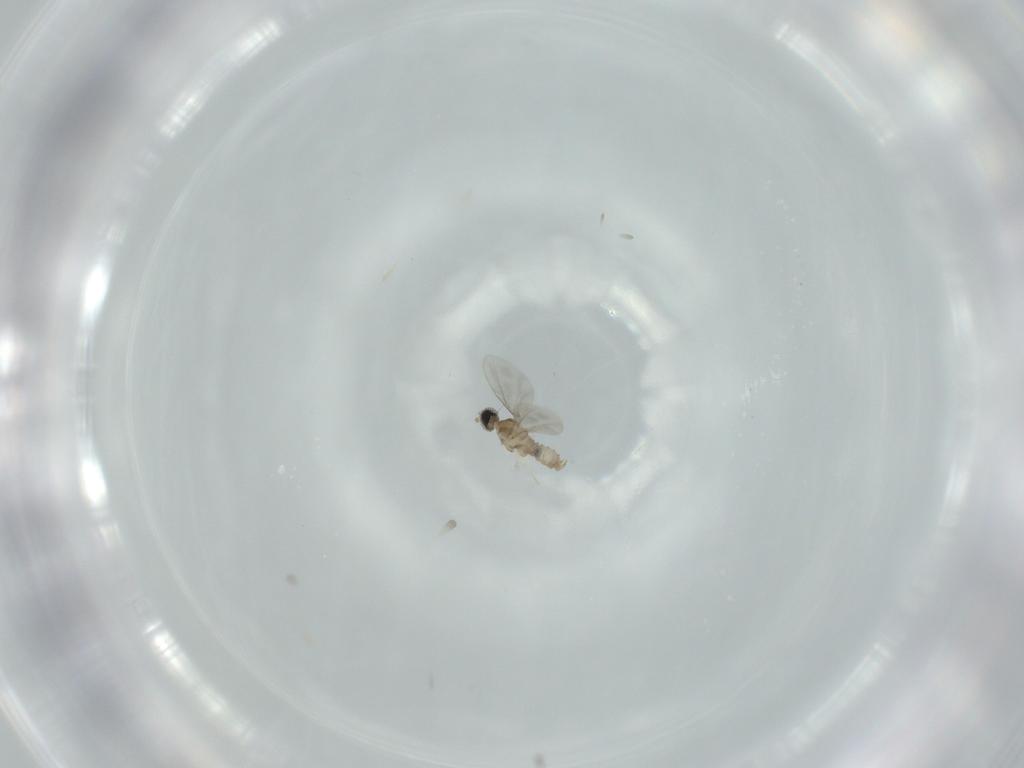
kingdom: Animalia
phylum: Arthropoda
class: Insecta
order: Diptera
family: Cecidomyiidae
